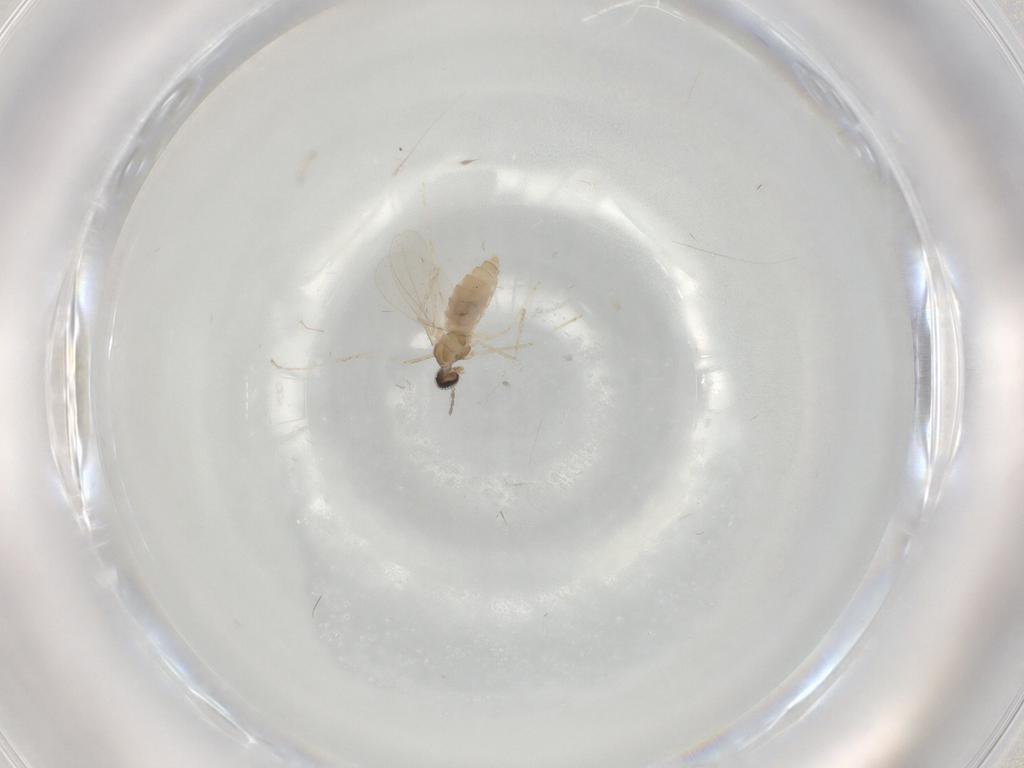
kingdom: Animalia
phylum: Arthropoda
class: Insecta
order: Diptera
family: Cecidomyiidae
